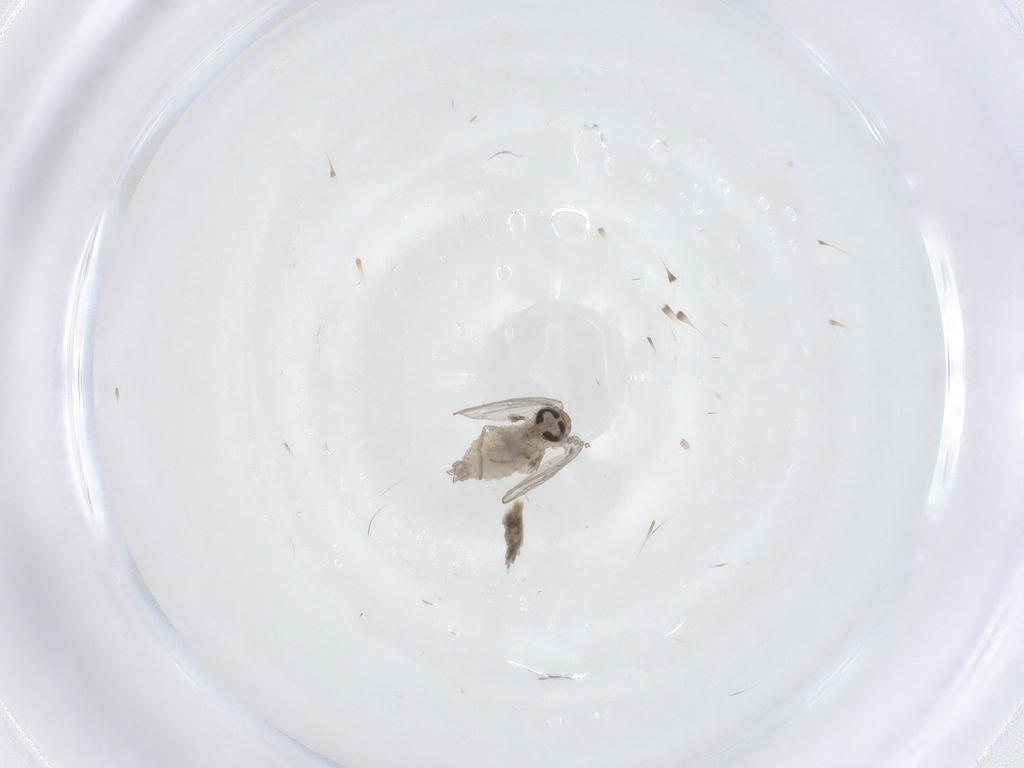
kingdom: Animalia
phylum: Arthropoda
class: Insecta
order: Diptera
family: Psychodidae
